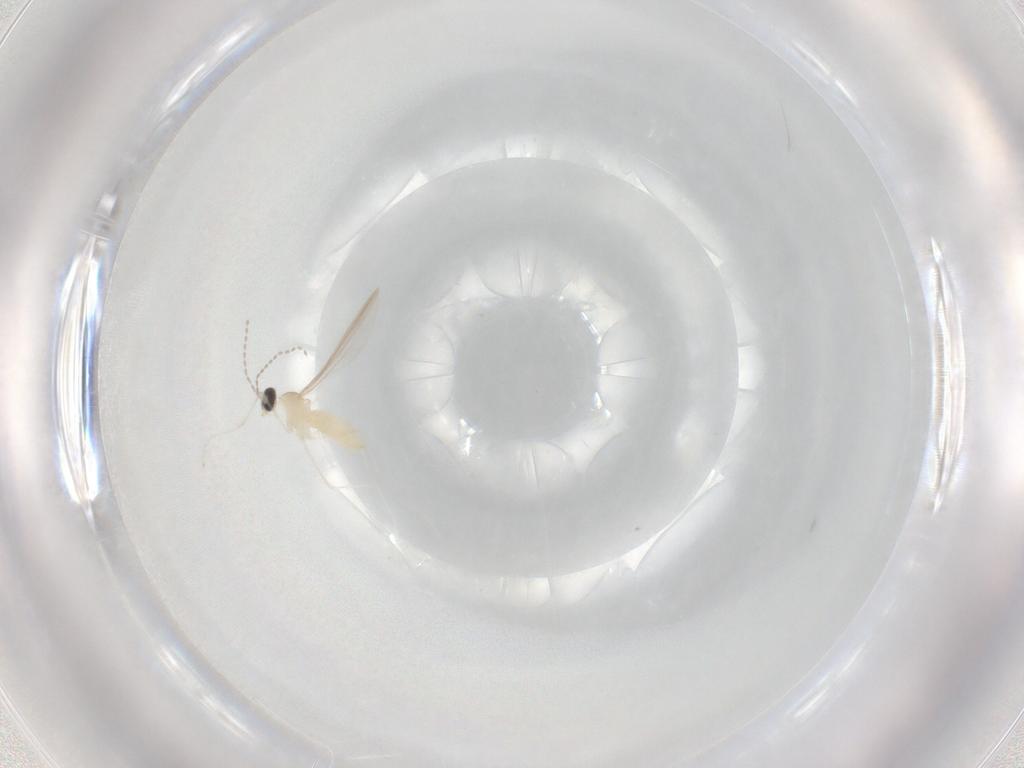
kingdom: Animalia
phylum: Arthropoda
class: Insecta
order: Diptera
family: Cecidomyiidae
